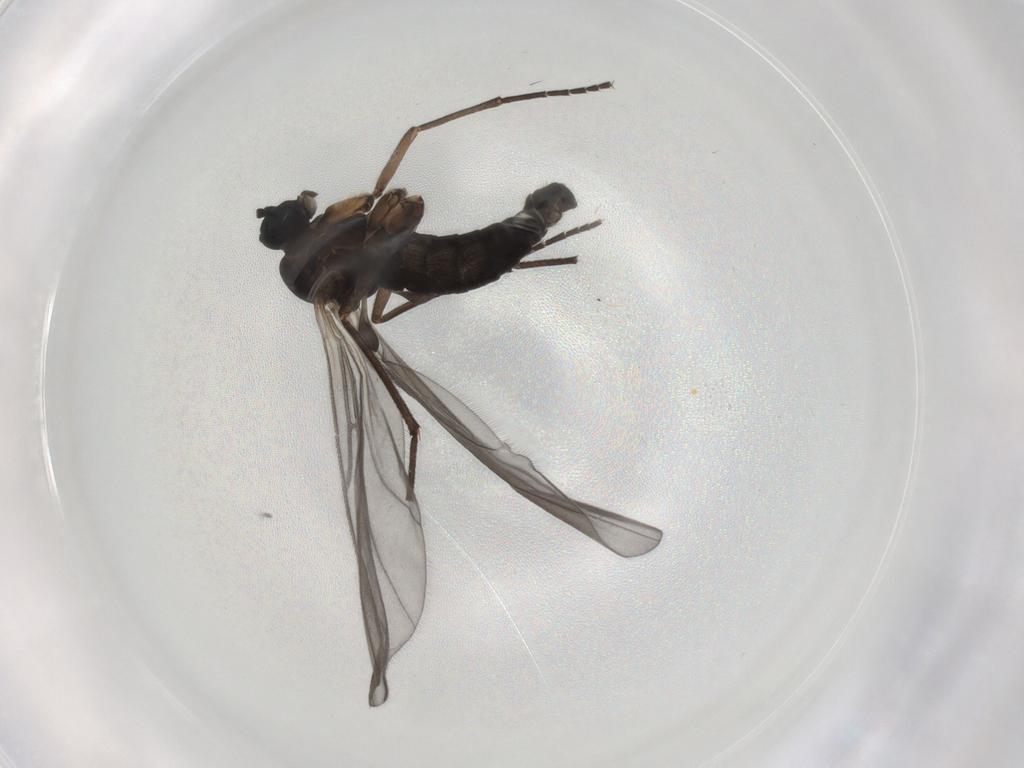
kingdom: Animalia
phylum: Arthropoda
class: Insecta
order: Diptera
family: Sciaridae
